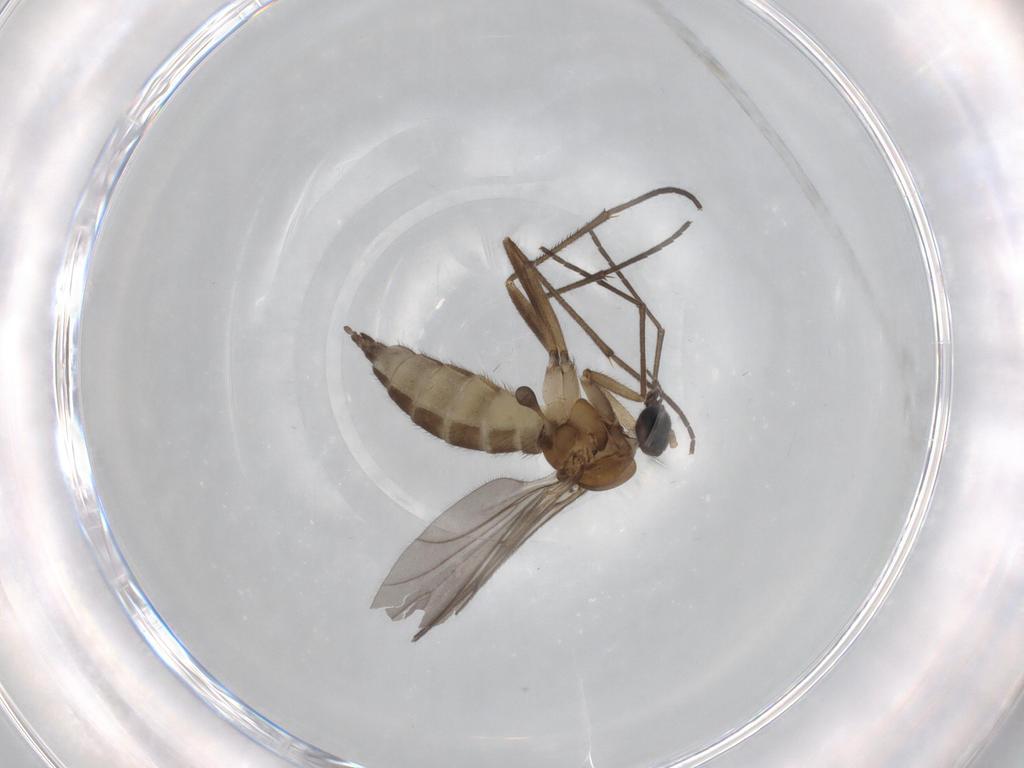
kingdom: Animalia
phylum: Arthropoda
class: Insecta
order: Diptera
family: Sciaridae
